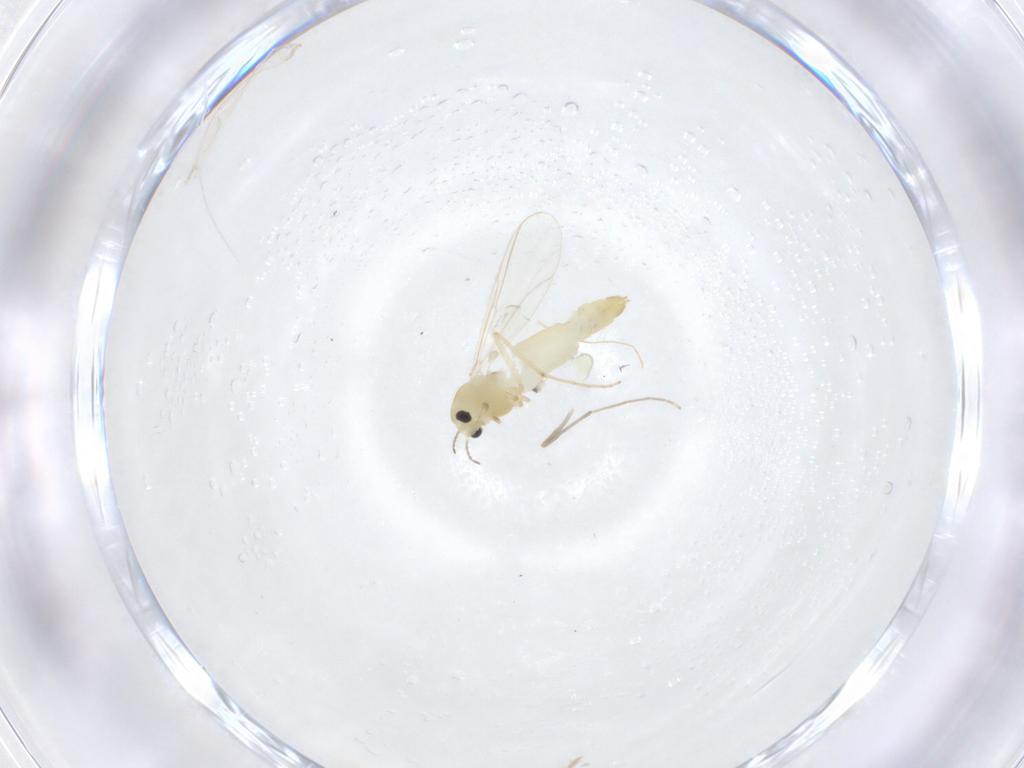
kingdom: Animalia
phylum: Arthropoda
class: Insecta
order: Diptera
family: Chironomidae
